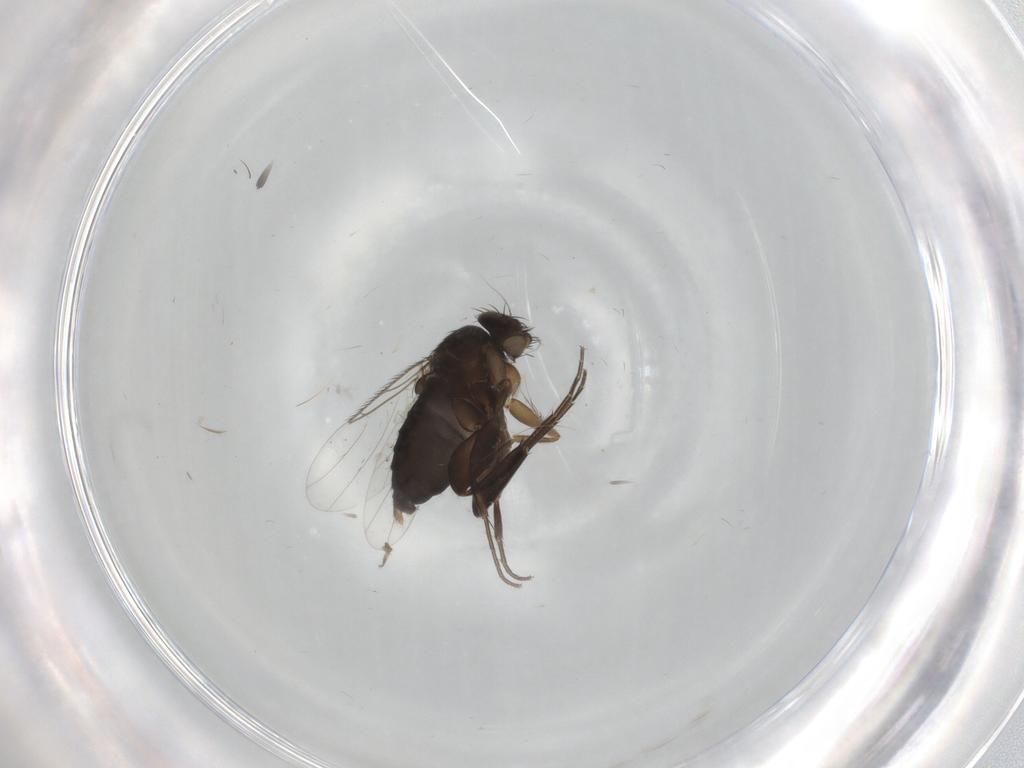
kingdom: Animalia
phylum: Arthropoda
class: Insecta
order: Diptera
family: Phoridae
